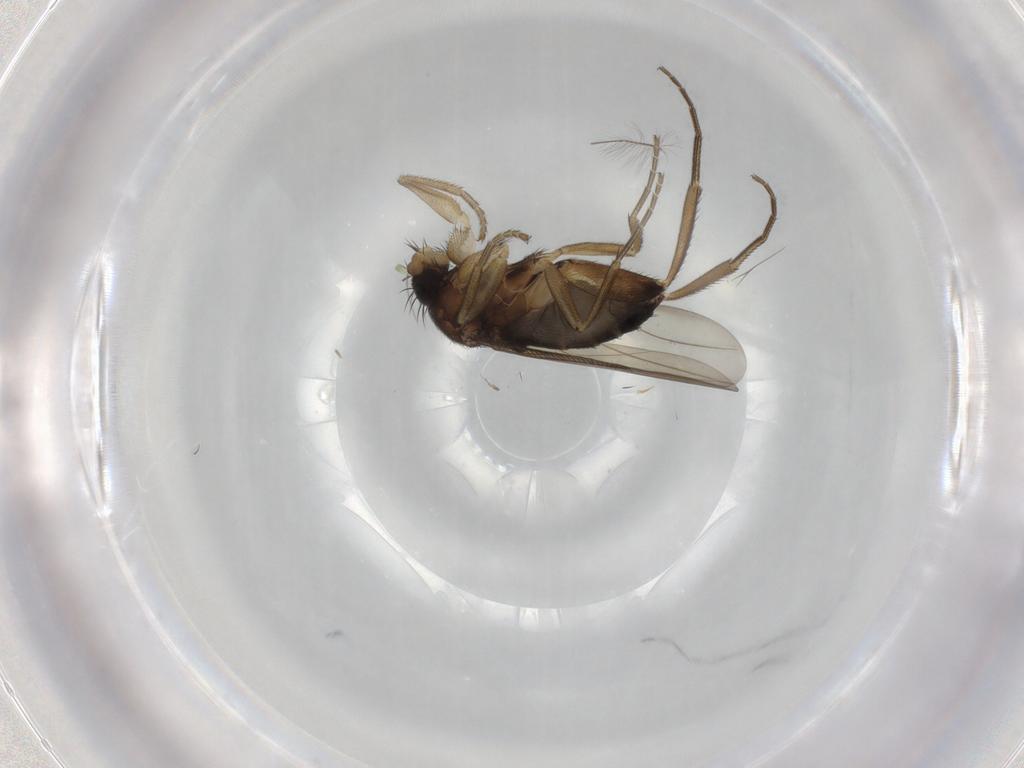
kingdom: Animalia
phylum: Arthropoda
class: Insecta
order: Diptera
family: Phoridae
